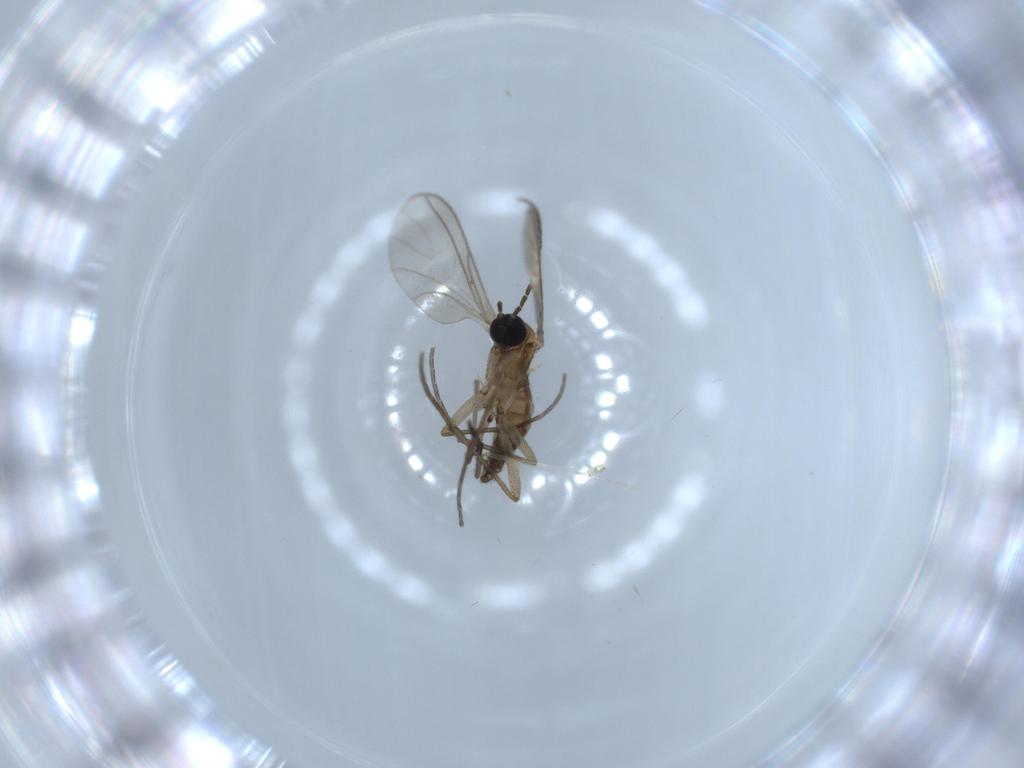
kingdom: Animalia
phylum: Arthropoda
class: Insecta
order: Diptera
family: Sciaridae
